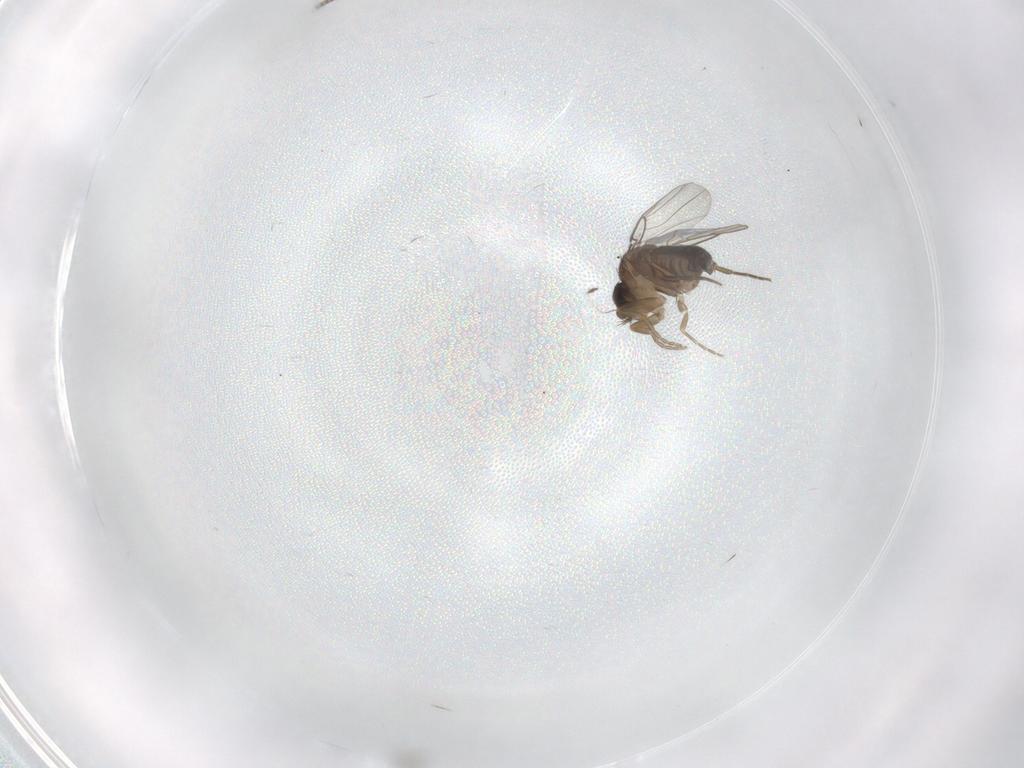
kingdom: Animalia
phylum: Arthropoda
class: Insecta
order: Diptera
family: Phoridae
